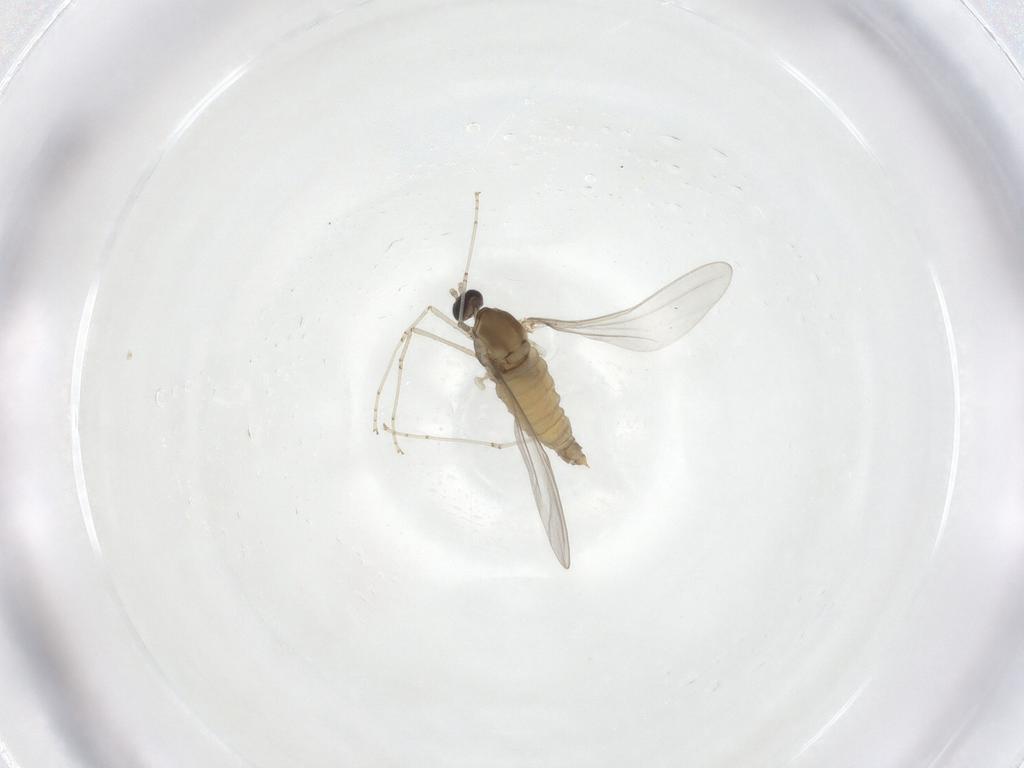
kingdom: Animalia
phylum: Arthropoda
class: Insecta
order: Diptera
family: Cecidomyiidae
